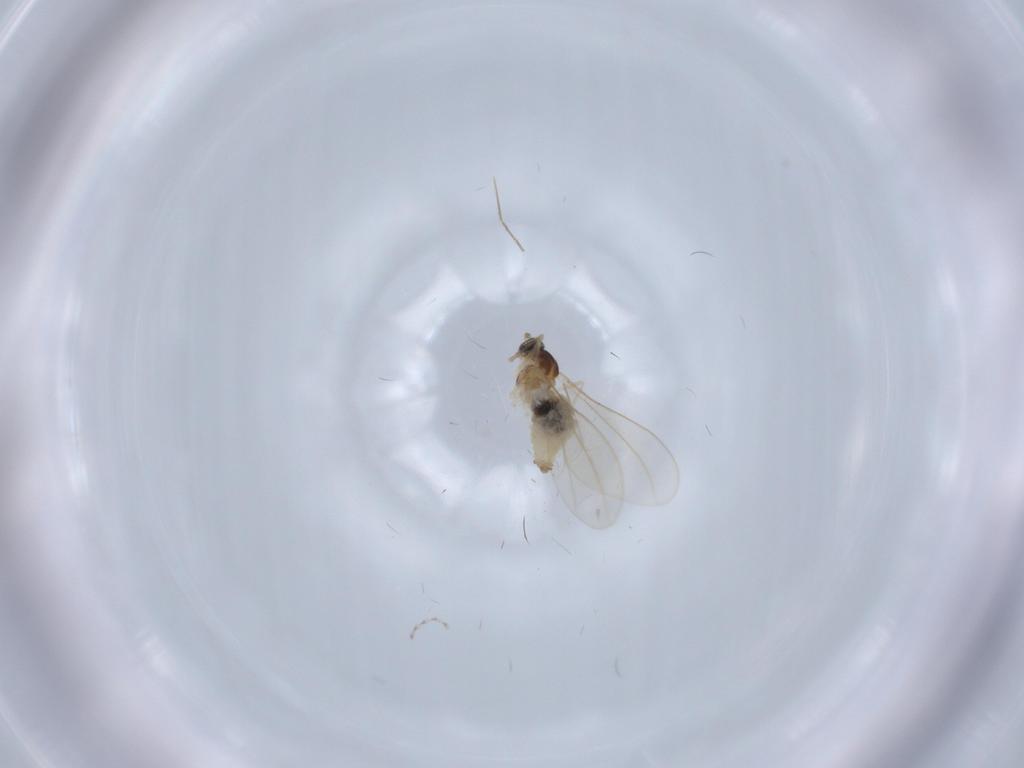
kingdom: Animalia
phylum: Arthropoda
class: Insecta
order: Diptera
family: Cecidomyiidae
